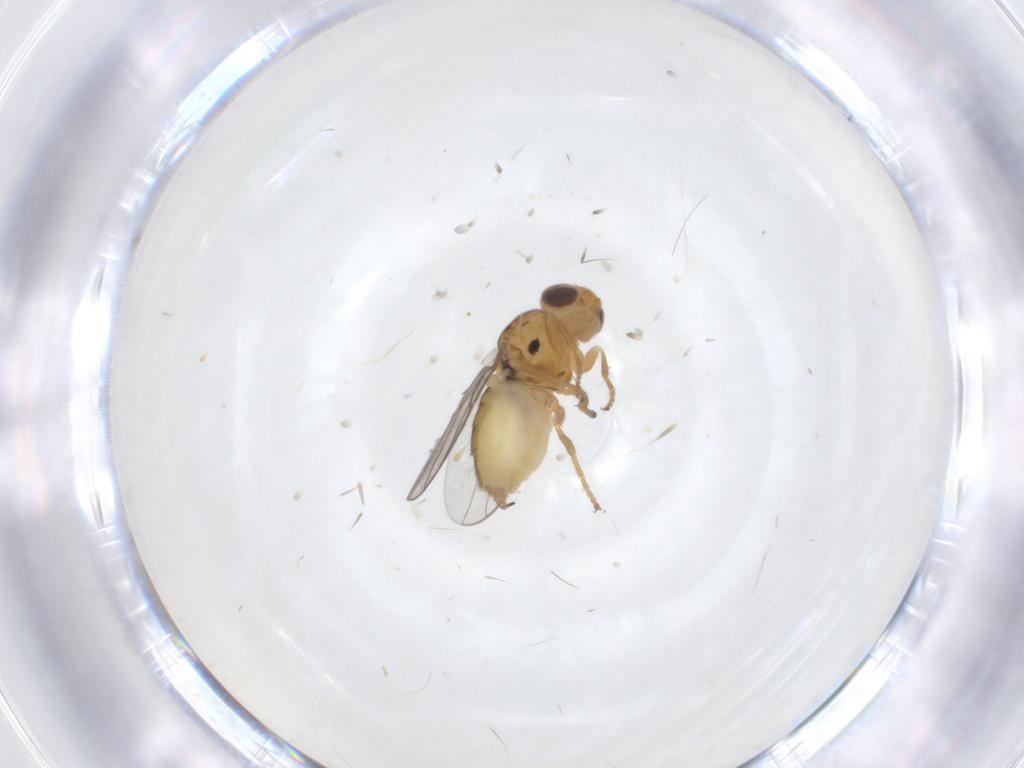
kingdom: Animalia
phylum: Arthropoda
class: Insecta
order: Diptera
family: Chloropidae
